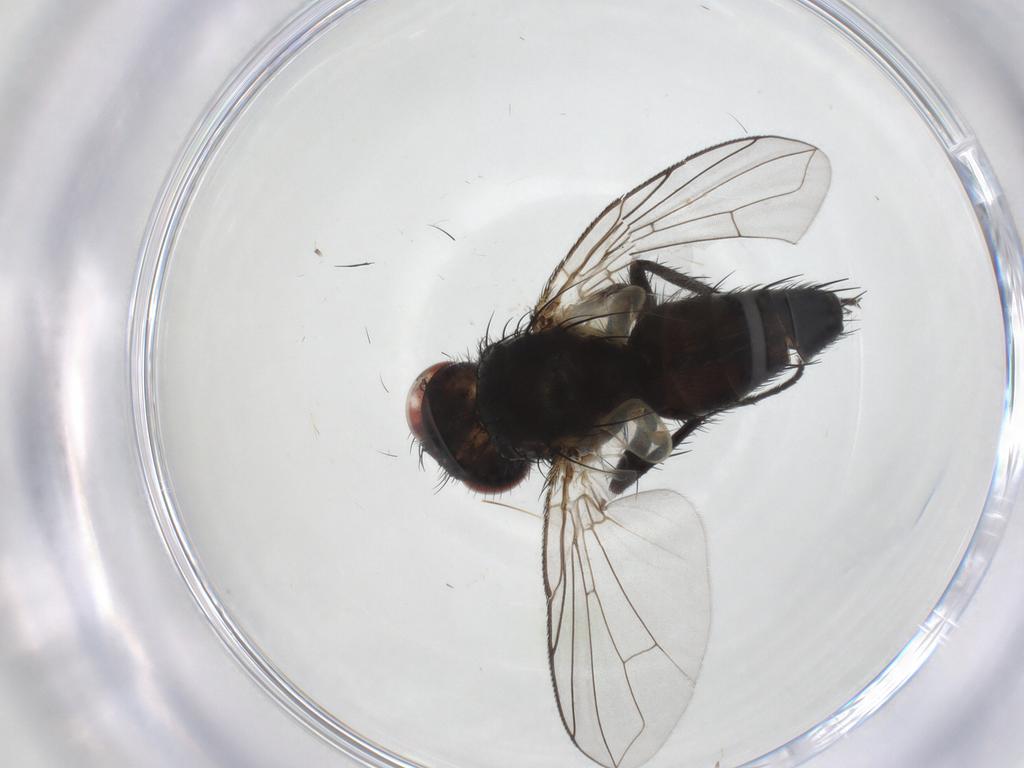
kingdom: Animalia
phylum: Arthropoda
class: Insecta
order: Diptera
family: Tachinidae
